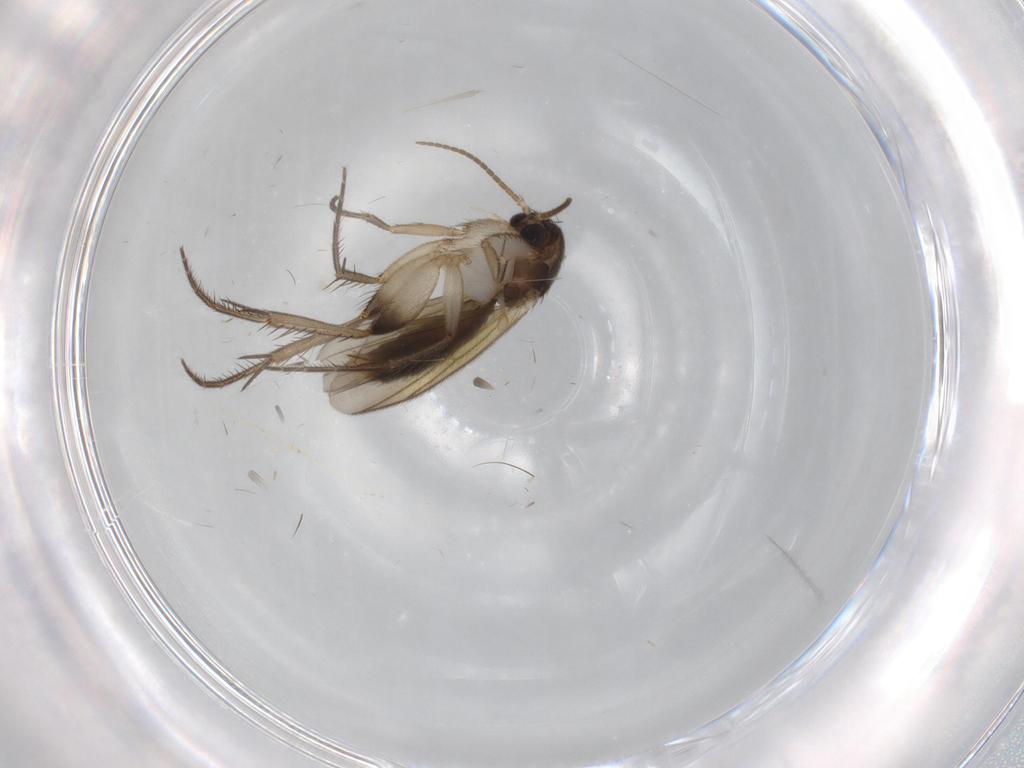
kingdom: Animalia
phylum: Arthropoda
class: Insecta
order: Diptera
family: Mycetophilidae
